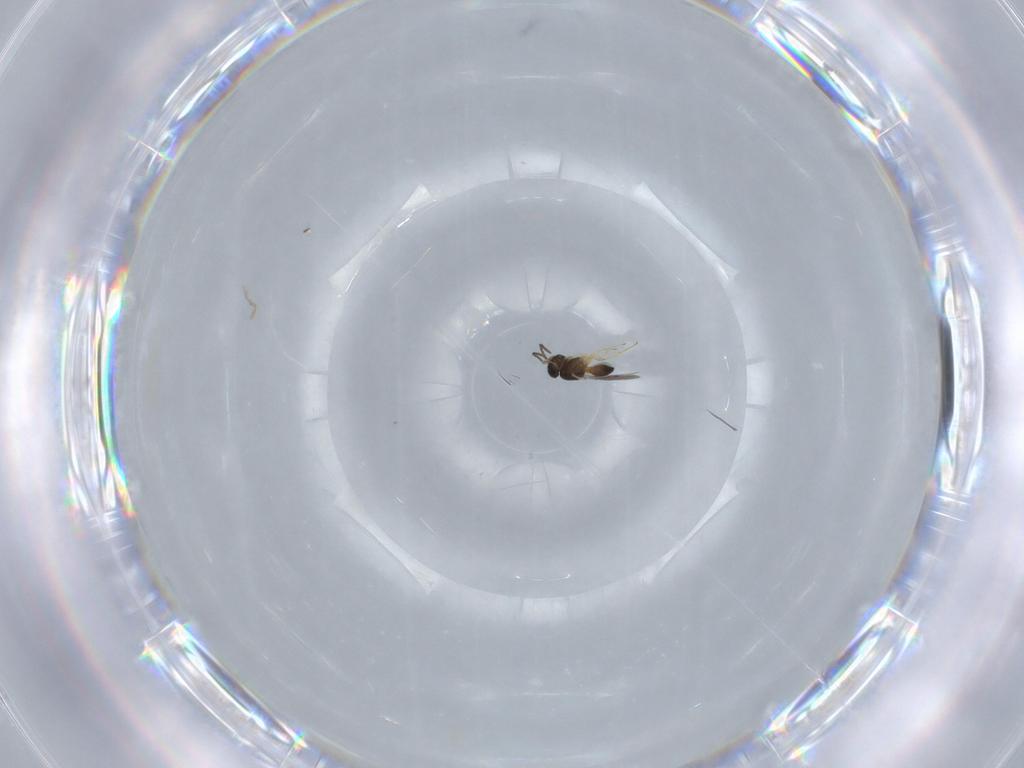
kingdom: Animalia
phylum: Arthropoda
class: Insecta
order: Hymenoptera
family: Scelionidae
